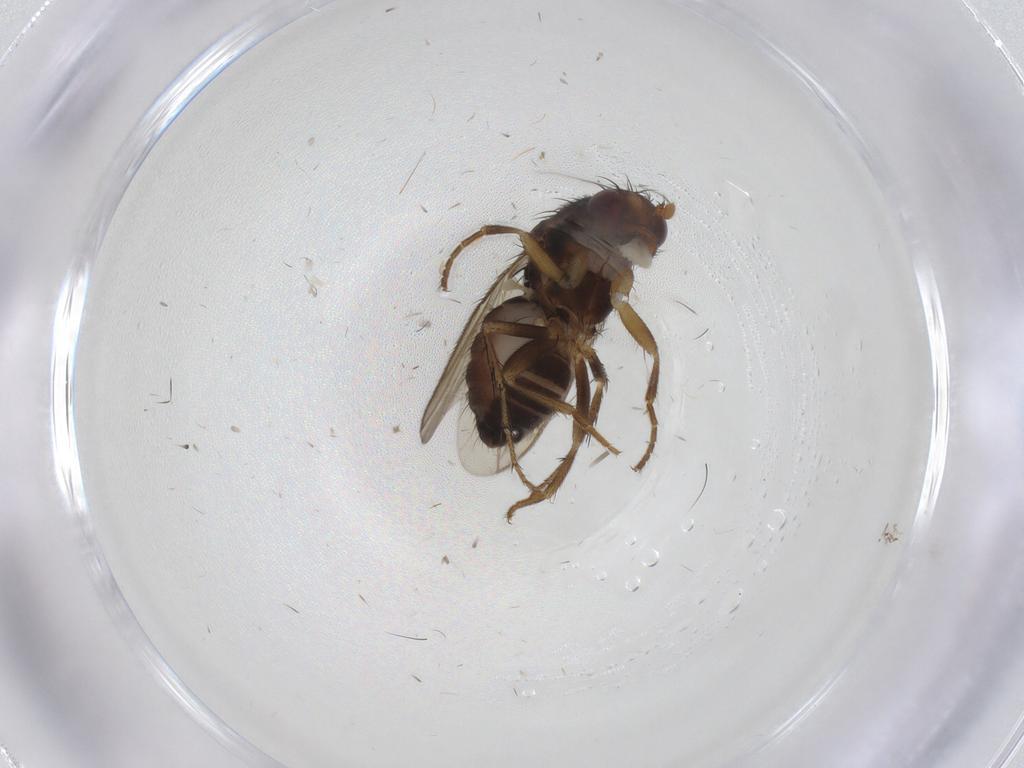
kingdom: Animalia
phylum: Arthropoda
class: Insecta
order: Diptera
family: Sphaeroceridae
